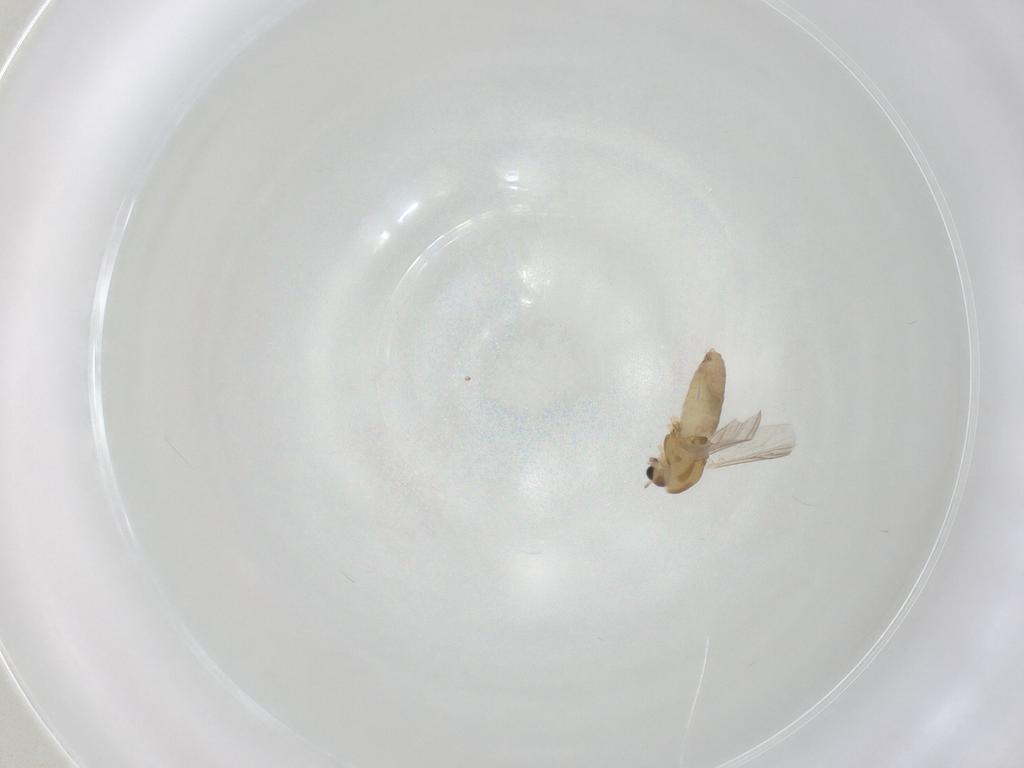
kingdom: Animalia
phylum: Arthropoda
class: Insecta
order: Diptera
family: Chironomidae
